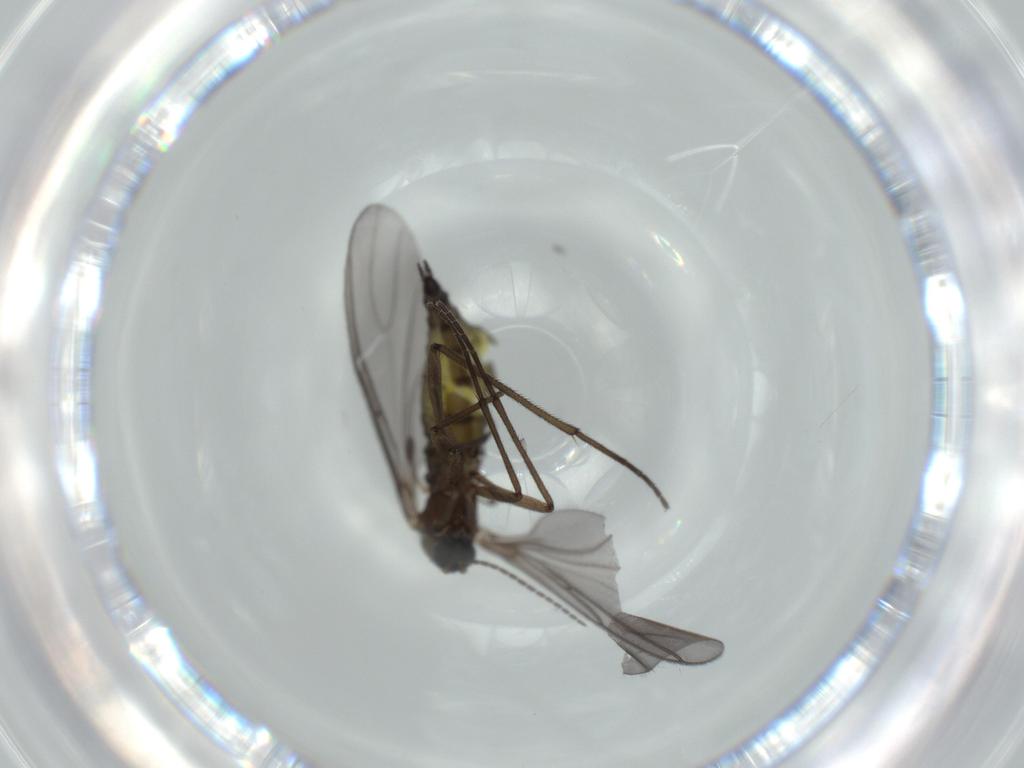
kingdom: Animalia
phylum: Arthropoda
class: Insecta
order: Diptera
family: Sciaridae
